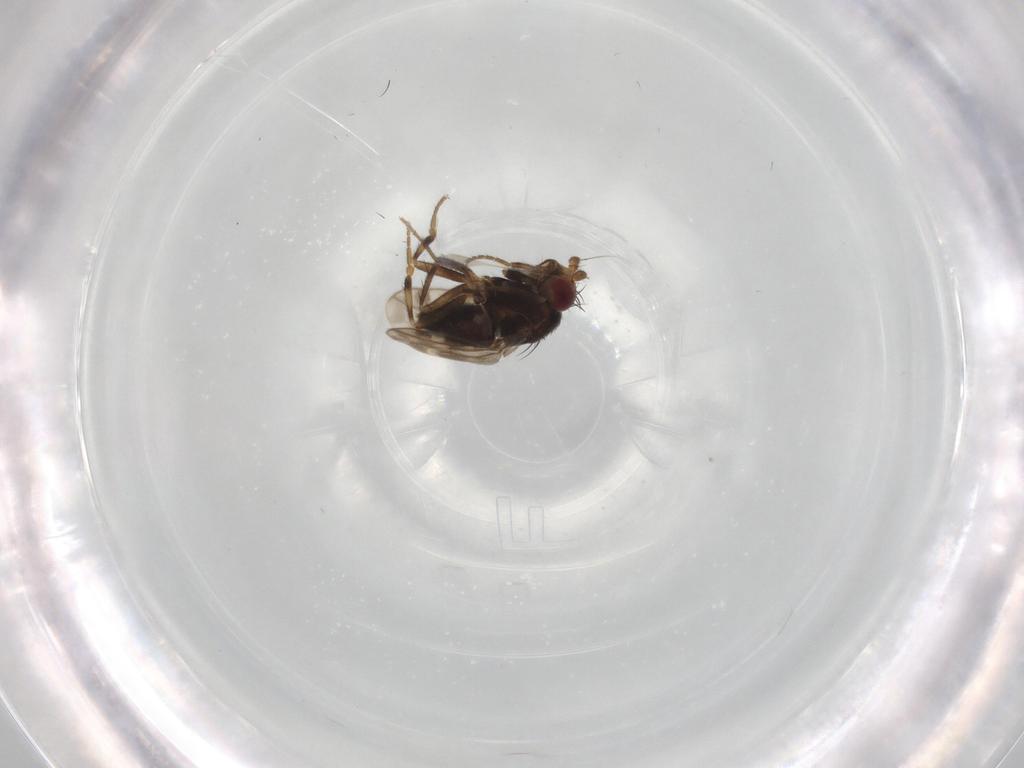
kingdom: Animalia
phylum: Arthropoda
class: Insecta
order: Diptera
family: Sphaeroceridae
